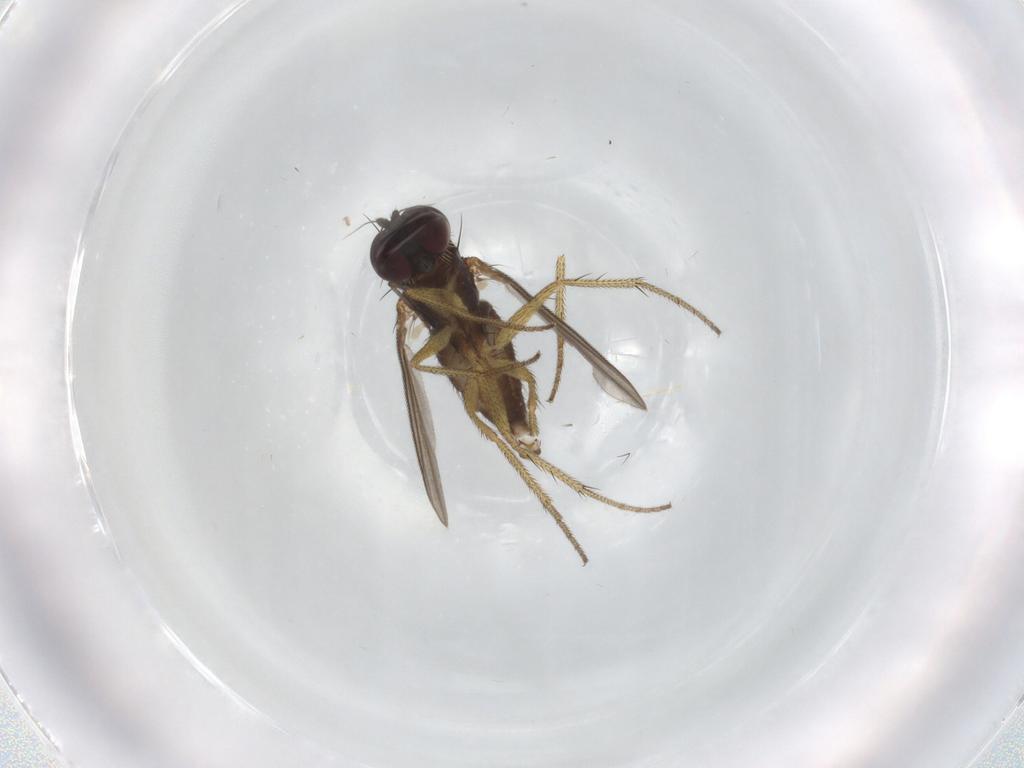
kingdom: Animalia
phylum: Arthropoda
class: Insecta
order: Diptera
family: Dolichopodidae
